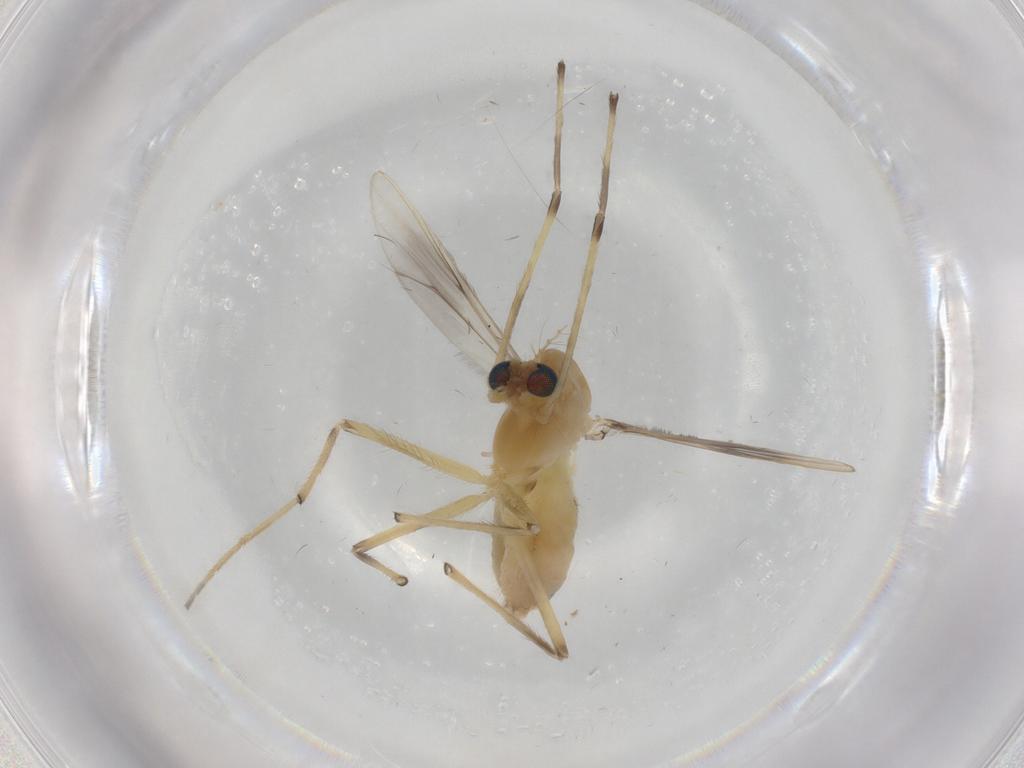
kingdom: Animalia
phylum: Arthropoda
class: Insecta
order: Diptera
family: Chironomidae
